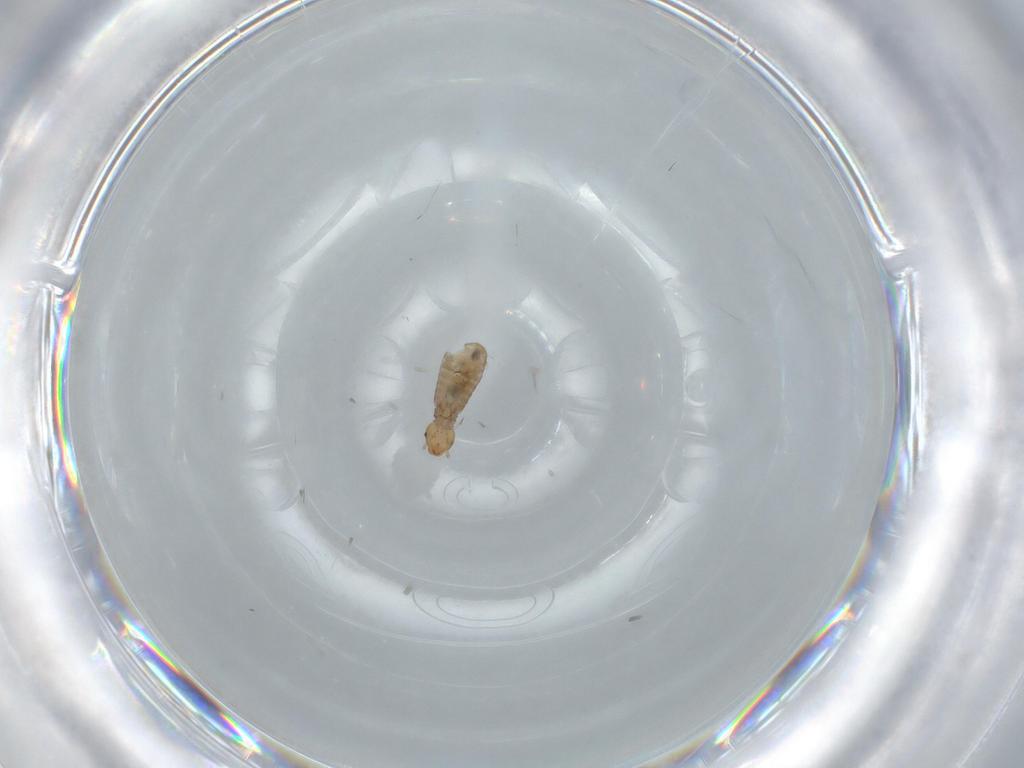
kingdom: Animalia
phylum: Arthropoda
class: Insecta
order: Psocodea
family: Liposcelididae
